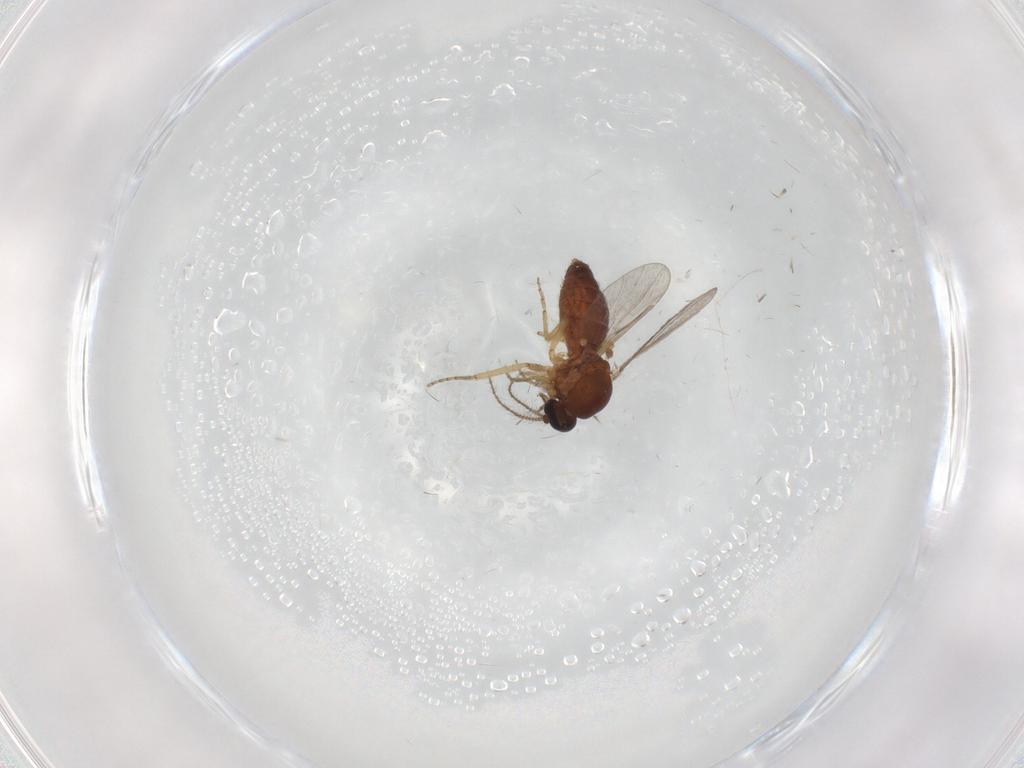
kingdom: Animalia
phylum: Arthropoda
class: Insecta
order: Diptera
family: Ceratopogonidae
